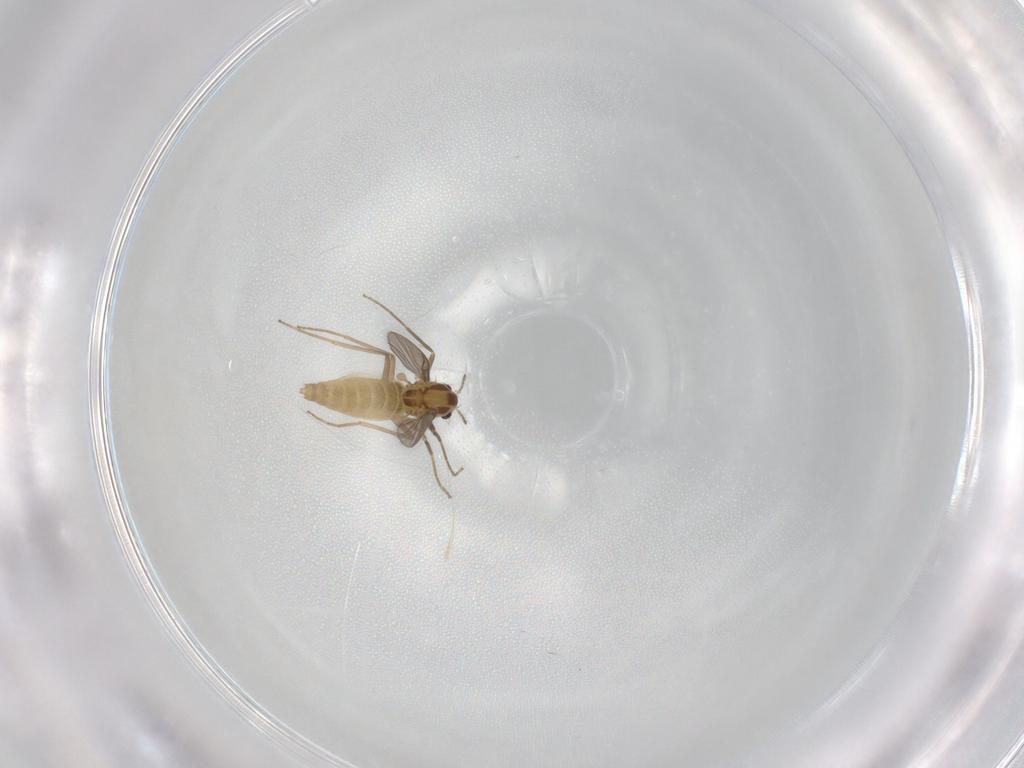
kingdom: Animalia
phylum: Arthropoda
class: Insecta
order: Diptera
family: Chironomidae
